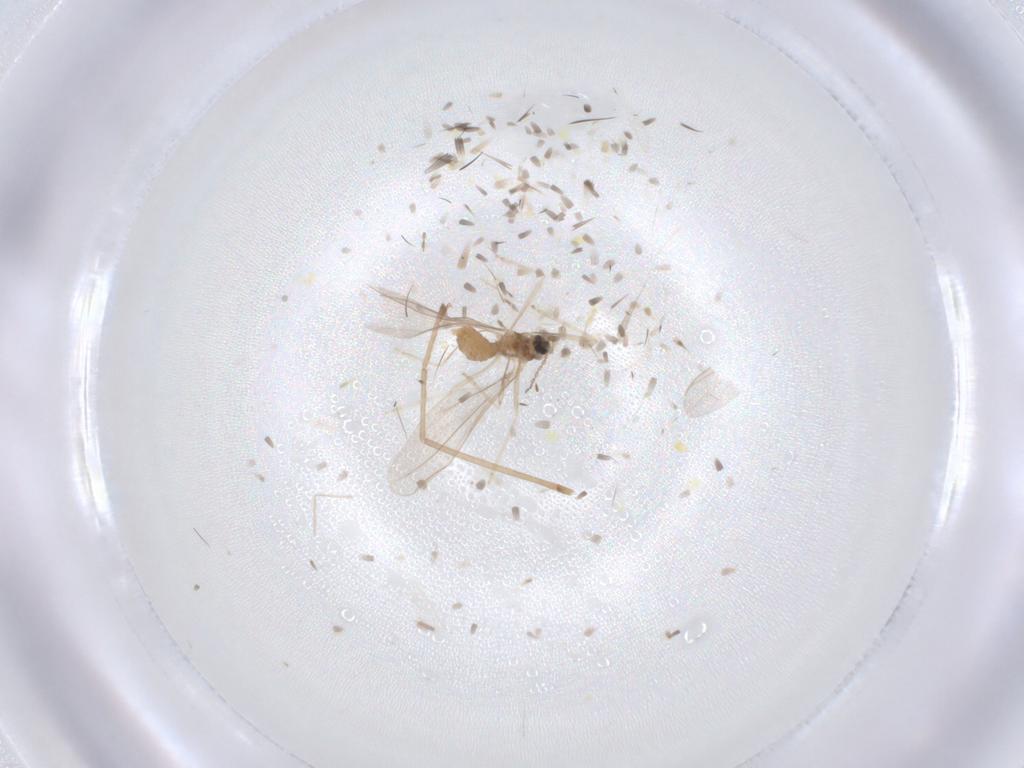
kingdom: Animalia
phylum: Arthropoda
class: Insecta
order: Diptera
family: Cecidomyiidae
